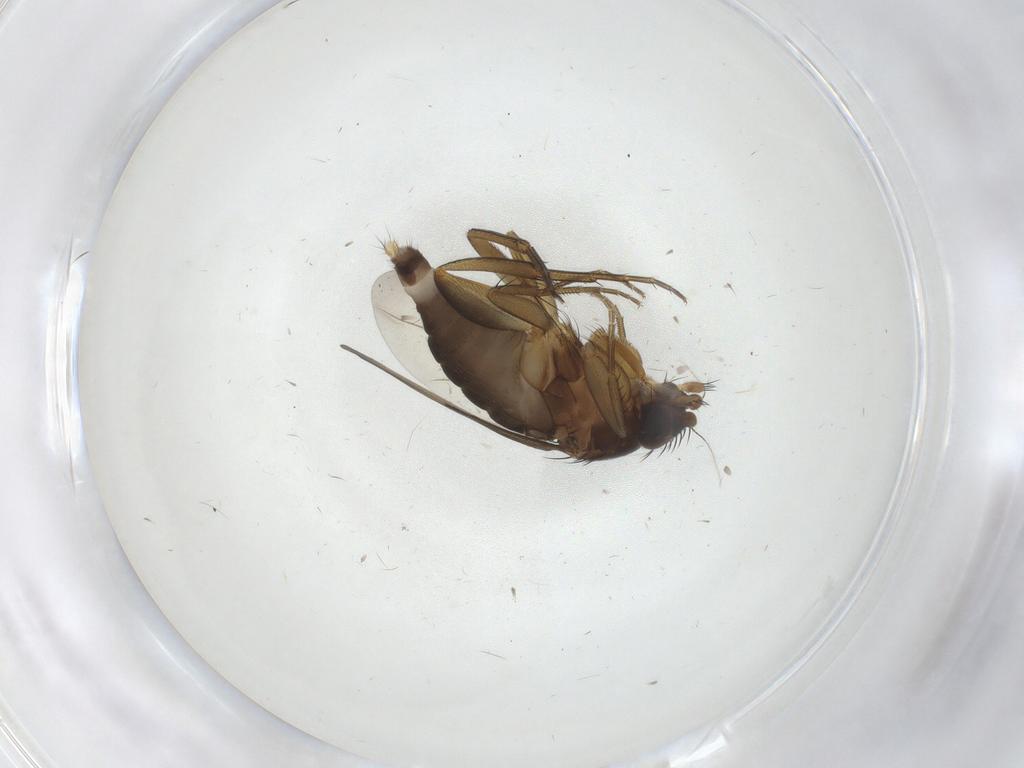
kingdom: Animalia
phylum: Arthropoda
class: Insecta
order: Diptera
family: Phoridae
